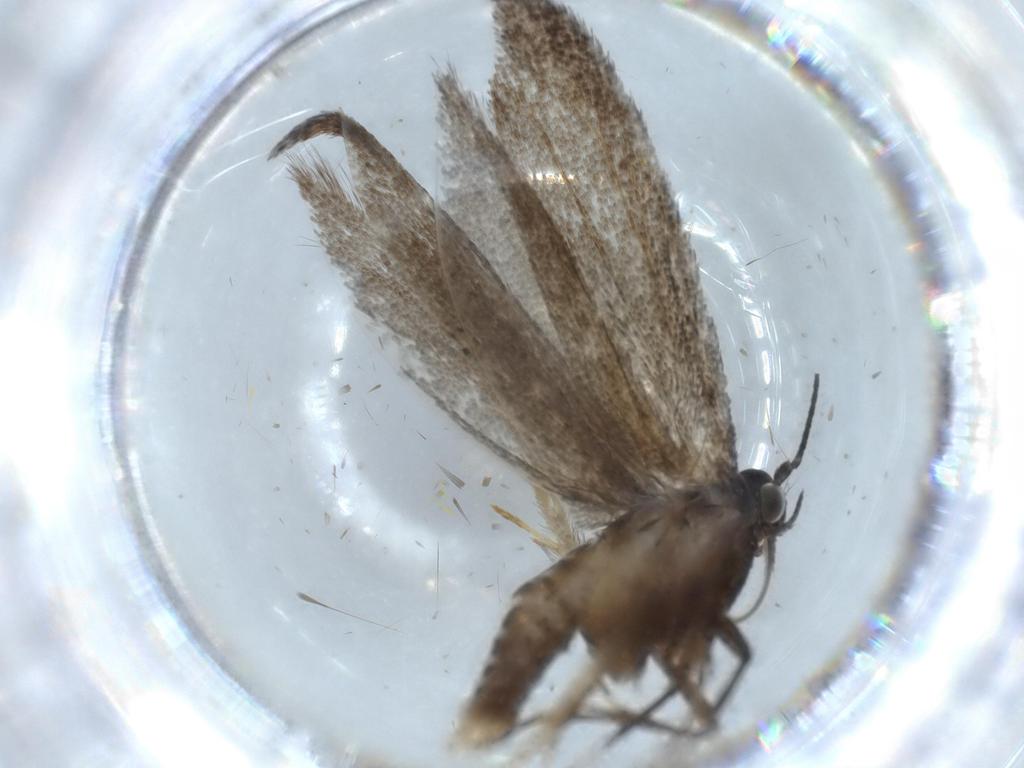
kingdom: Animalia
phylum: Arthropoda
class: Insecta
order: Lepidoptera
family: Oecophoridae
